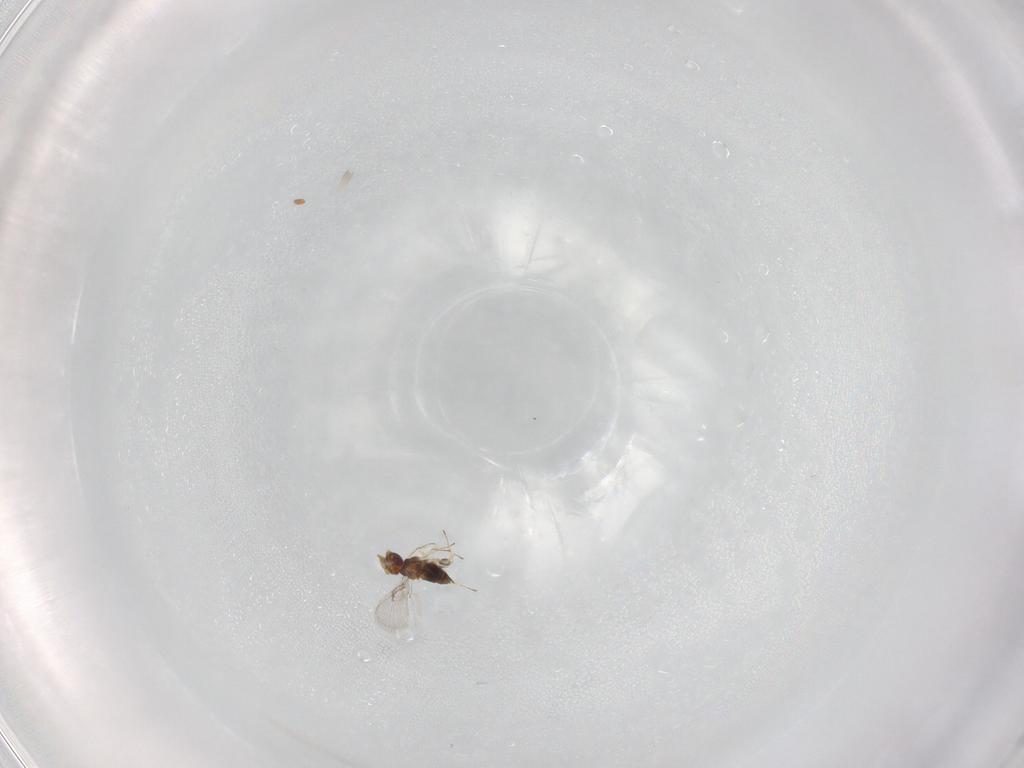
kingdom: Animalia
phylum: Arthropoda
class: Insecta
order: Hymenoptera
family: Trichogrammatidae
